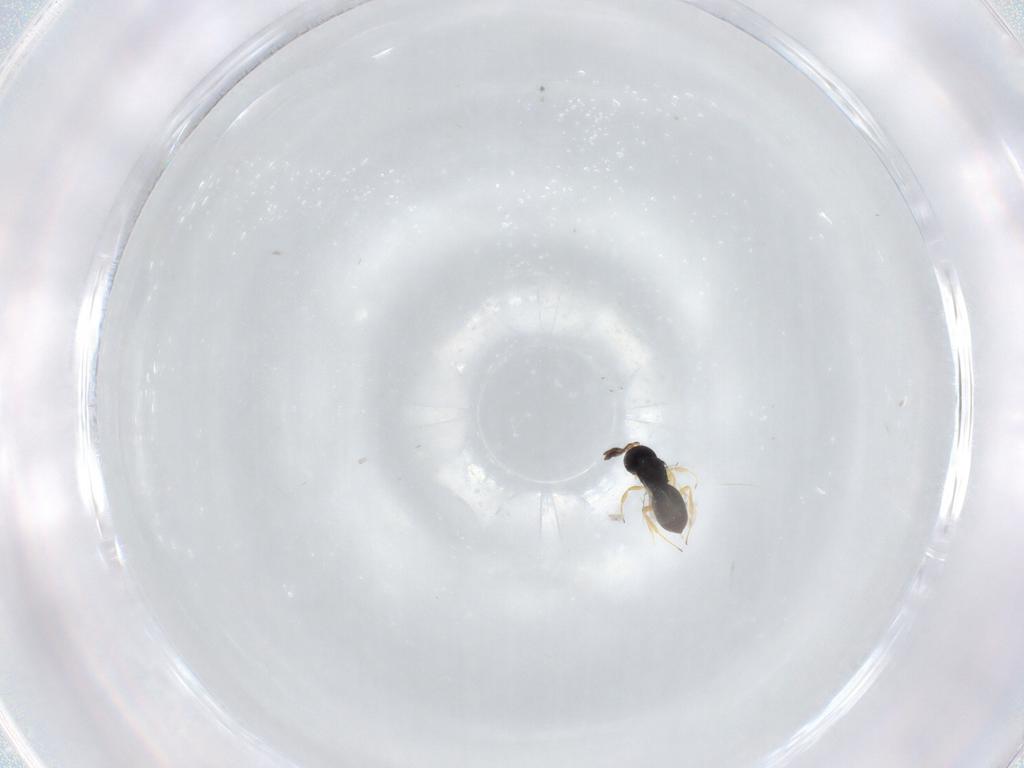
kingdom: Animalia
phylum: Arthropoda
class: Insecta
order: Hymenoptera
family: Scelionidae
